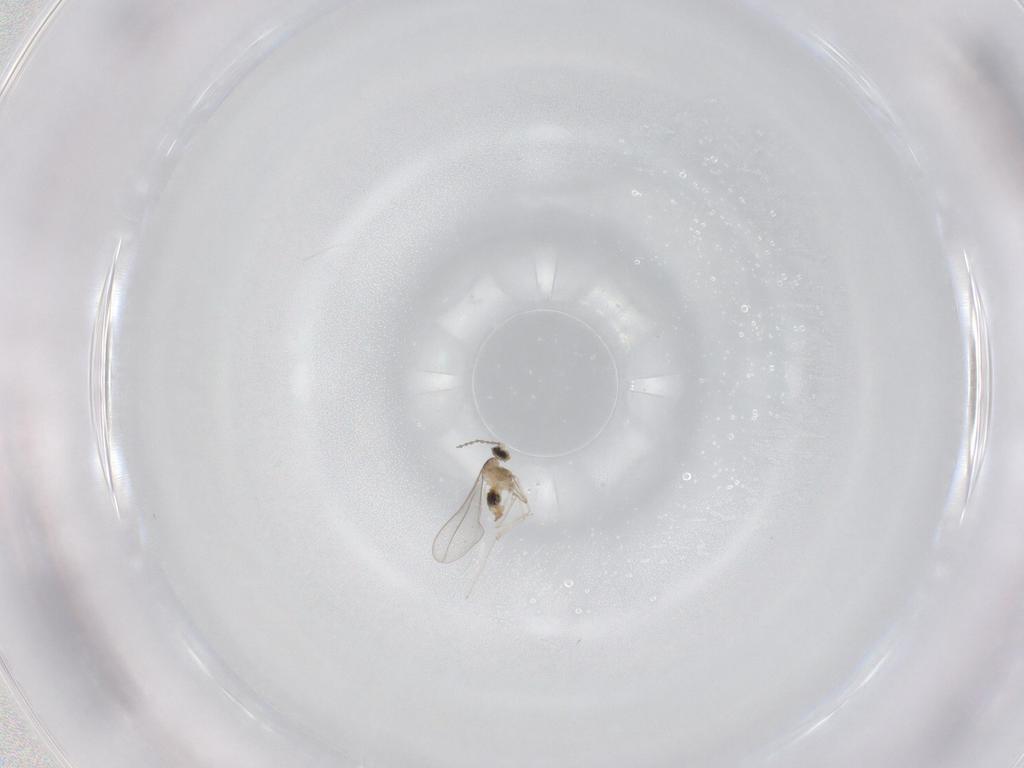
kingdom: Animalia
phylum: Arthropoda
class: Insecta
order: Diptera
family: Cecidomyiidae
